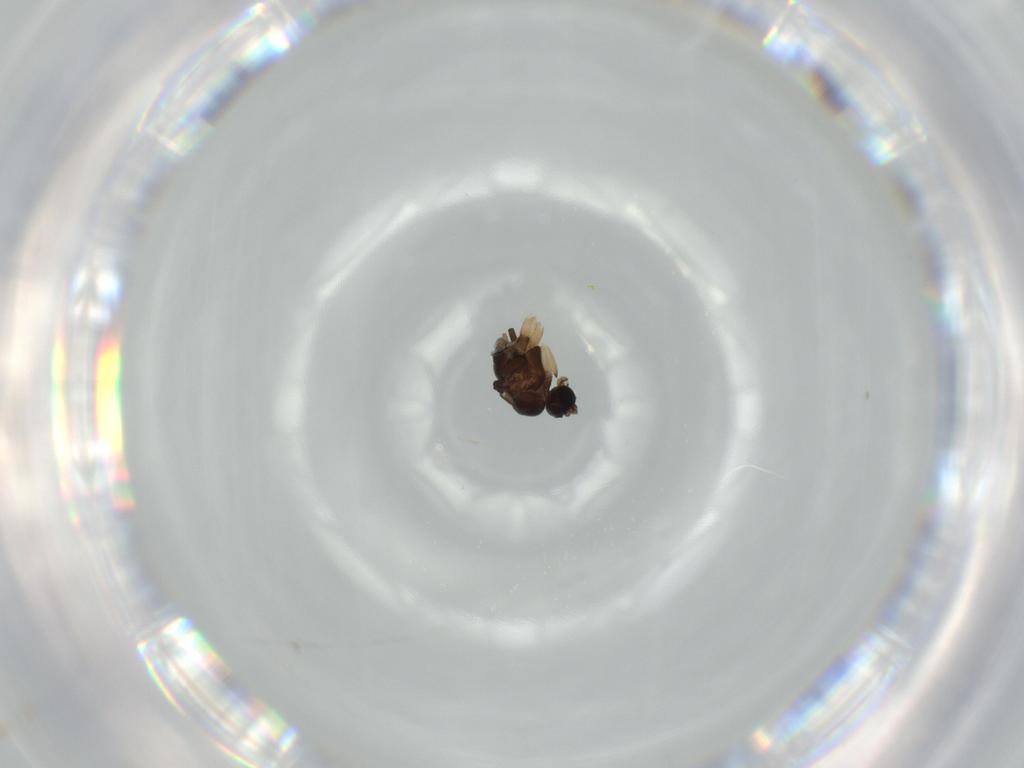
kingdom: Animalia
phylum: Arthropoda
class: Insecta
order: Diptera
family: Sciaridae
